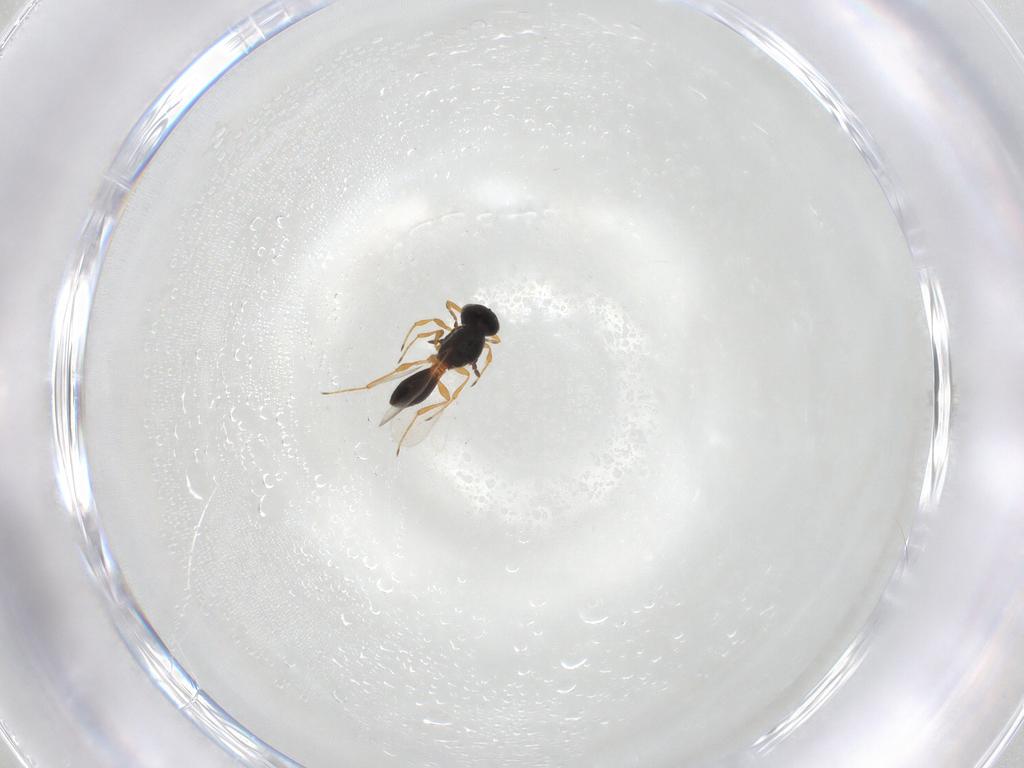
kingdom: Animalia
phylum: Arthropoda
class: Insecta
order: Hymenoptera
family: Platygastridae
